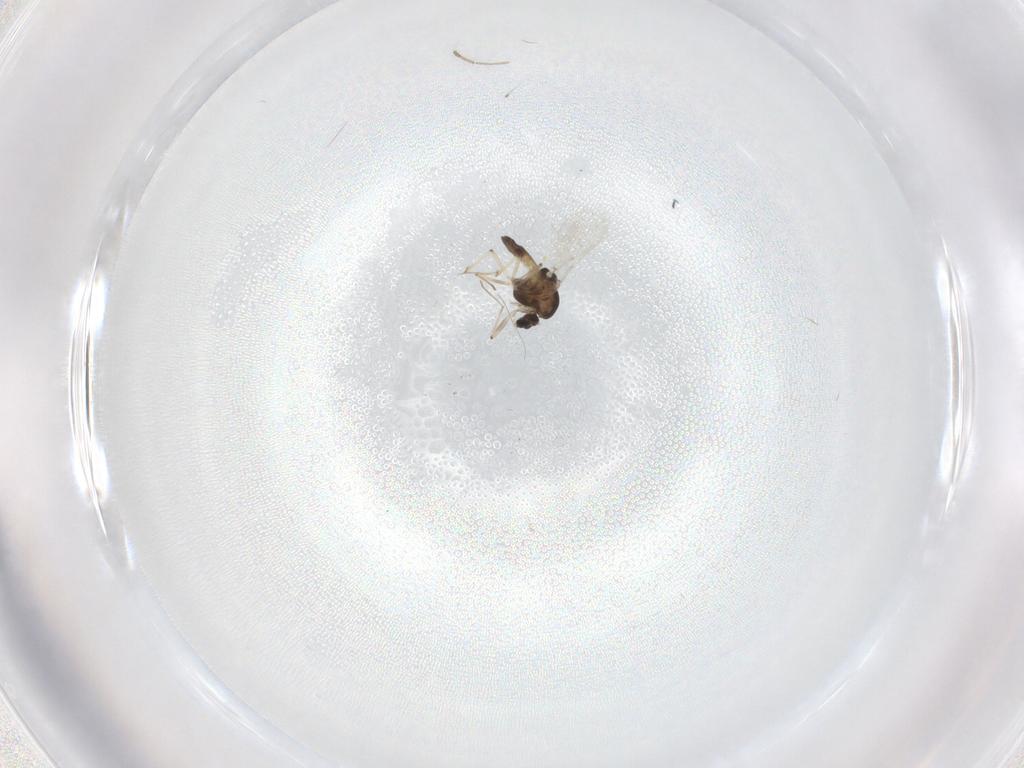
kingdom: Animalia
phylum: Arthropoda
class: Insecta
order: Diptera
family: Chironomidae
